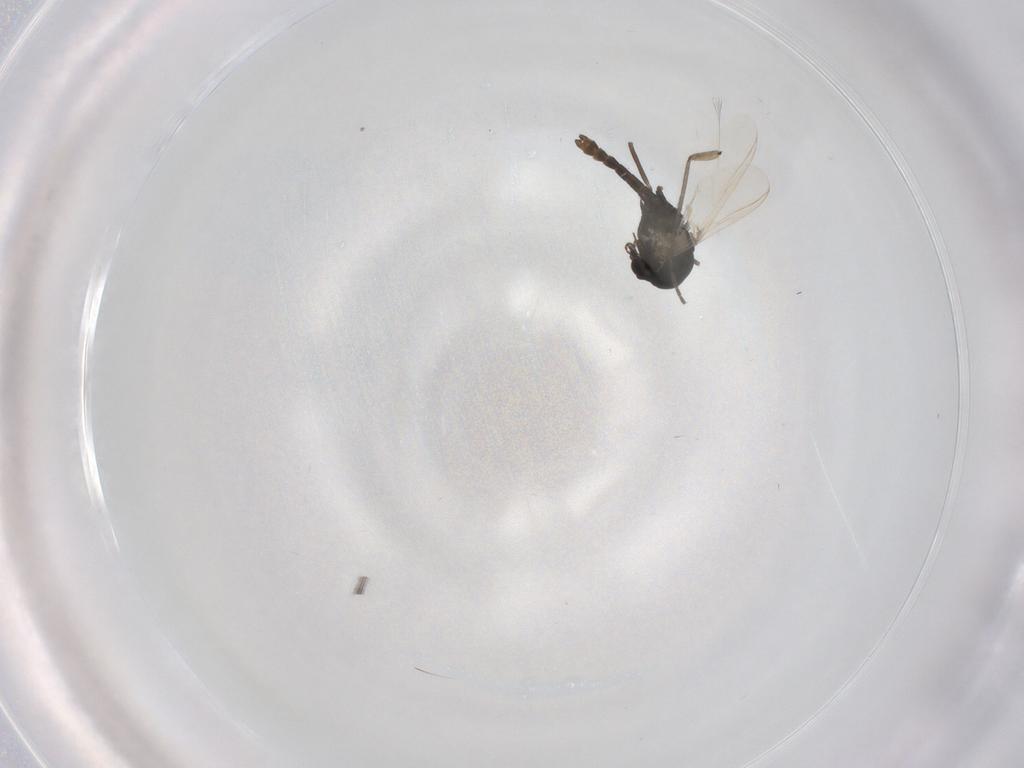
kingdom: Animalia
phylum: Arthropoda
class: Insecta
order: Diptera
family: Chironomidae
